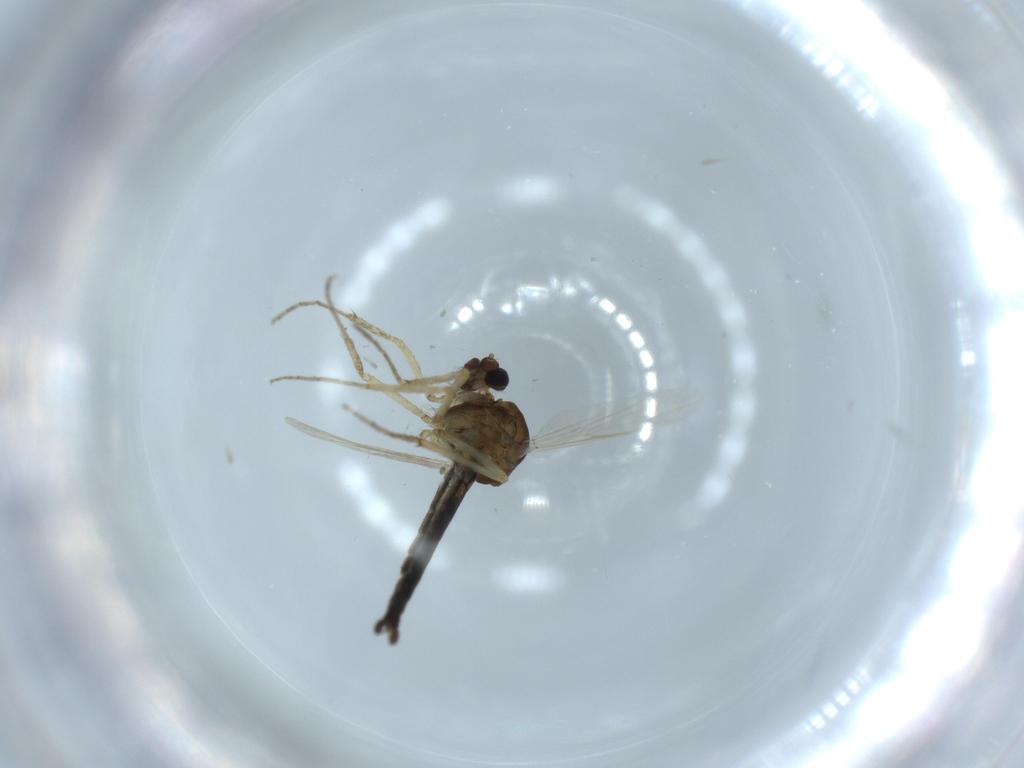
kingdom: Animalia
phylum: Arthropoda
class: Insecta
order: Diptera
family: Ceratopogonidae
